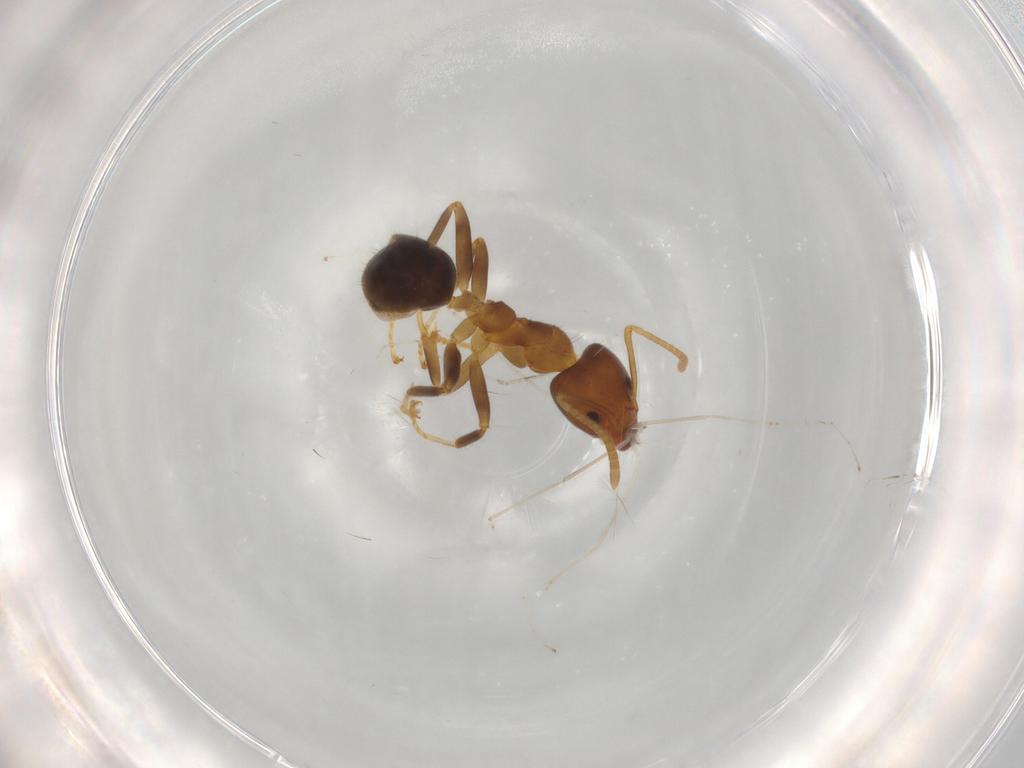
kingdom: Animalia
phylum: Arthropoda
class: Insecta
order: Hymenoptera
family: Formicidae
